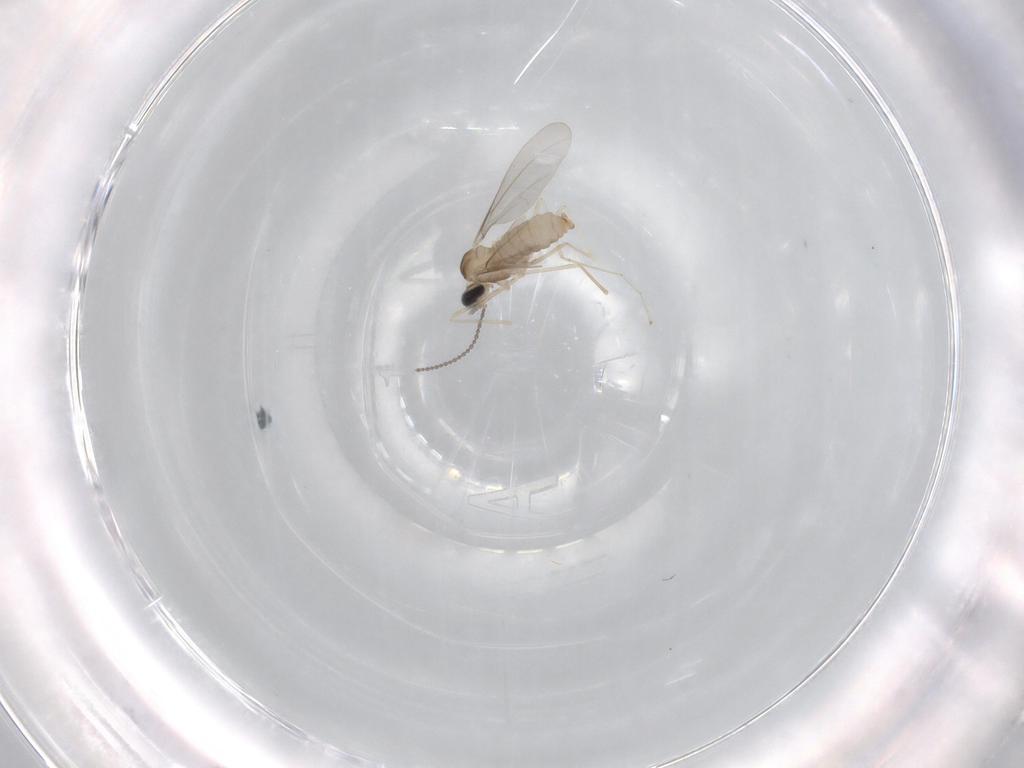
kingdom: Animalia
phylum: Arthropoda
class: Insecta
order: Diptera
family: Cecidomyiidae
